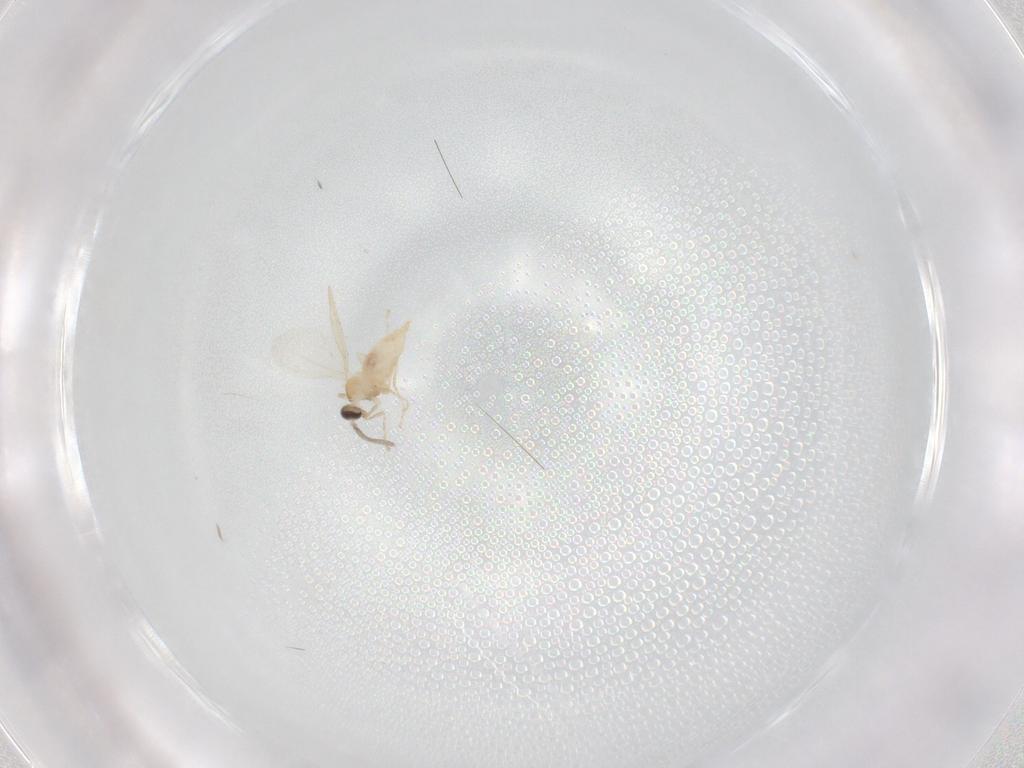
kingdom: Animalia
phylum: Arthropoda
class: Insecta
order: Diptera
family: Cecidomyiidae
